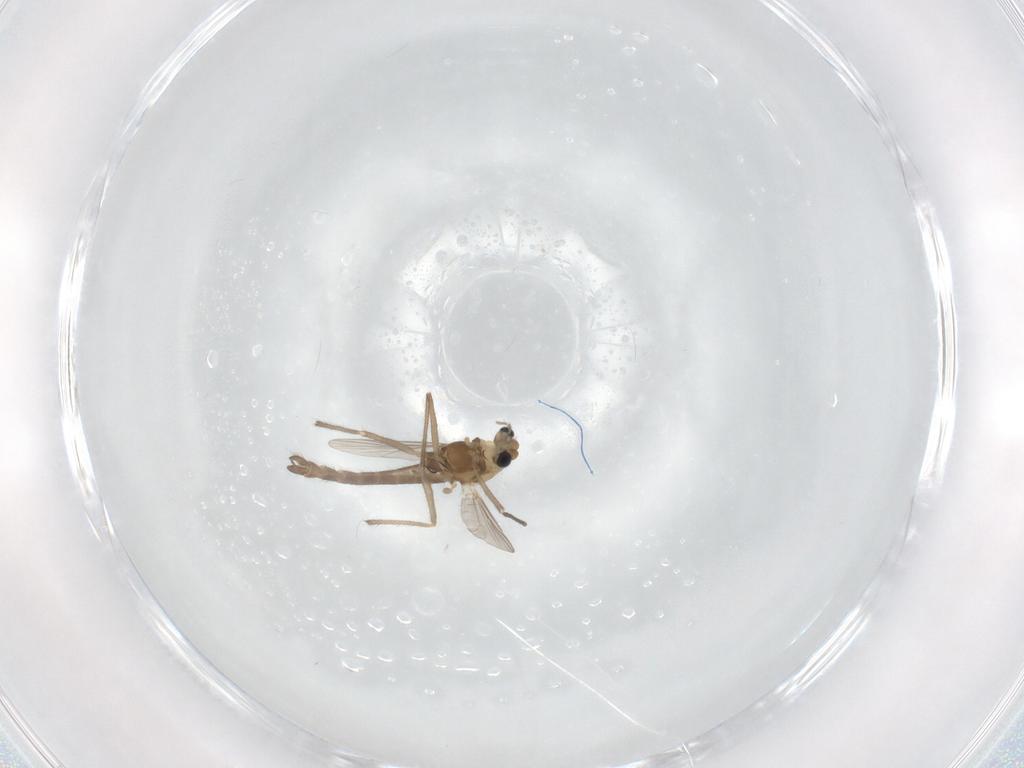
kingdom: Animalia
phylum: Arthropoda
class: Insecta
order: Diptera
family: Chironomidae
